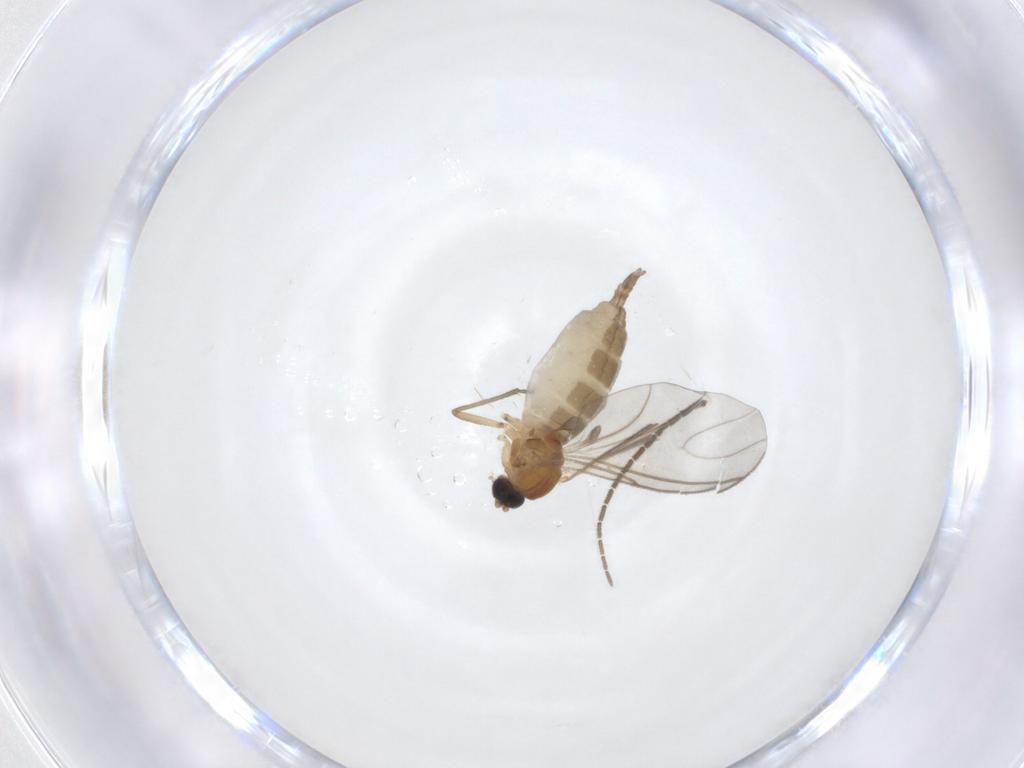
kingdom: Animalia
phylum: Arthropoda
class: Insecta
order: Diptera
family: Sciaridae
